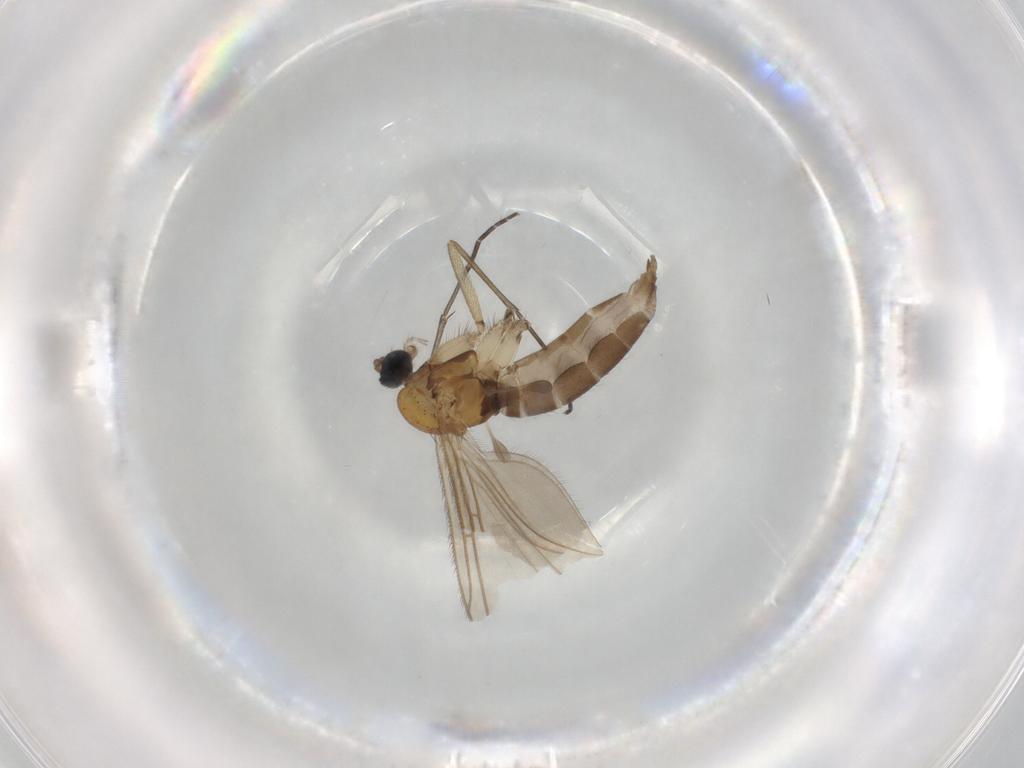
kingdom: Animalia
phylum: Arthropoda
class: Insecta
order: Diptera
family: Sciaridae
